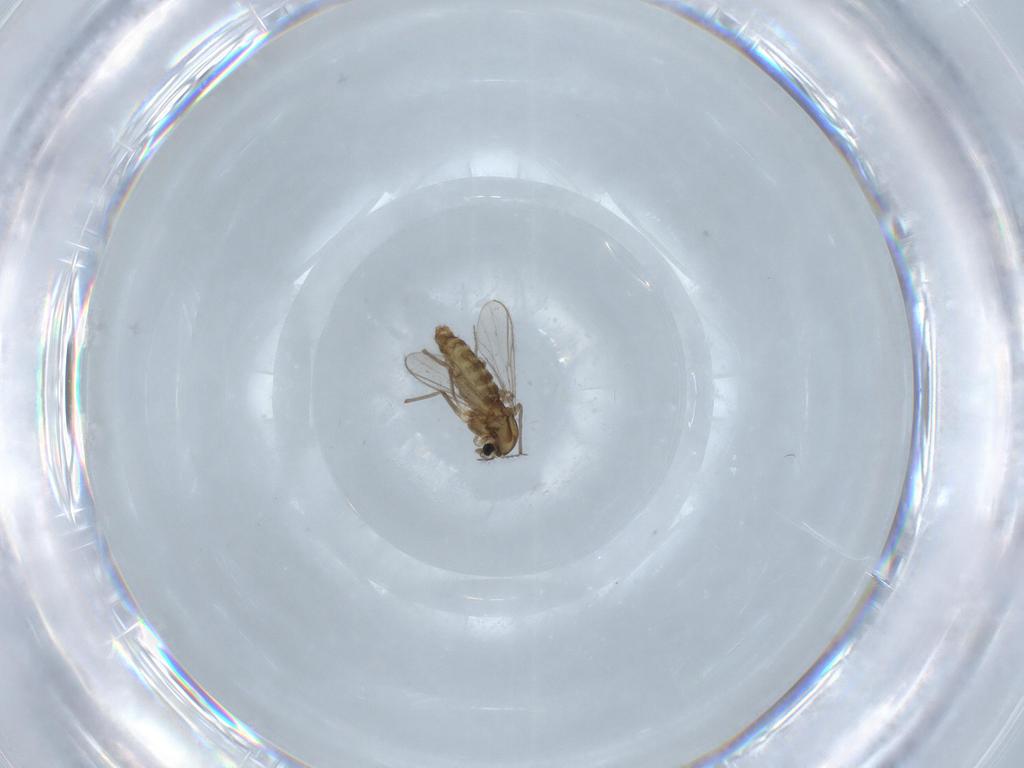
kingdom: Animalia
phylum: Arthropoda
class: Insecta
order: Diptera
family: Chironomidae
